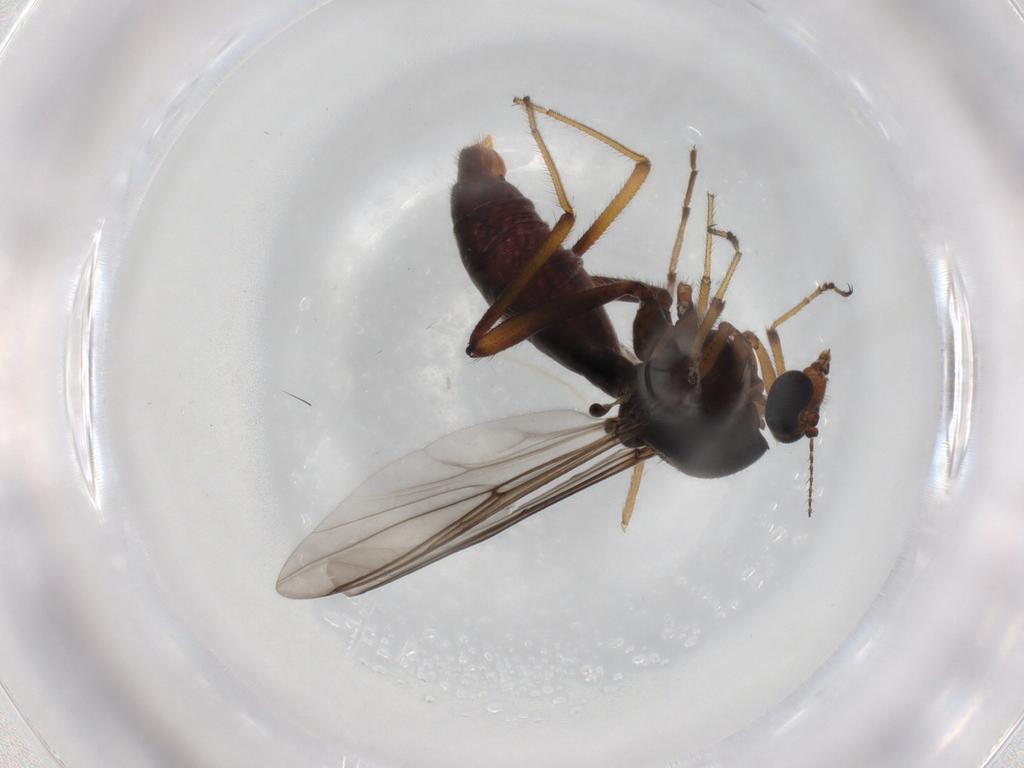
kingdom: Animalia
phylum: Arthropoda
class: Insecta
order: Diptera
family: Ceratopogonidae
